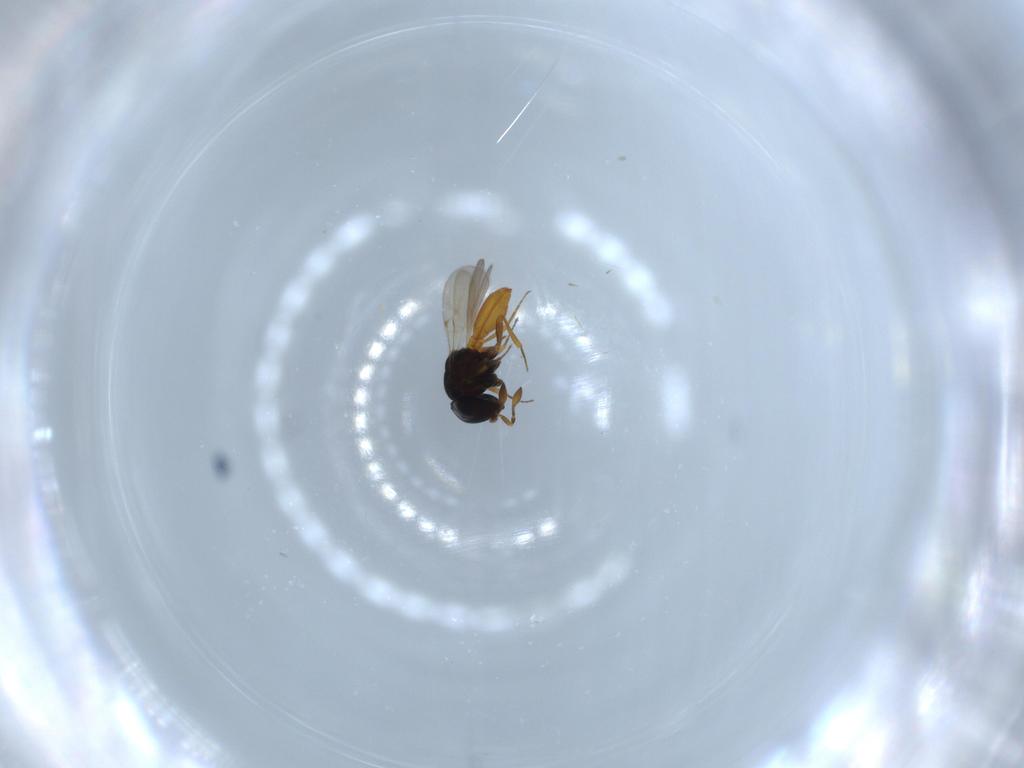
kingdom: Animalia
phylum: Arthropoda
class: Insecta
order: Hymenoptera
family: Scelionidae
